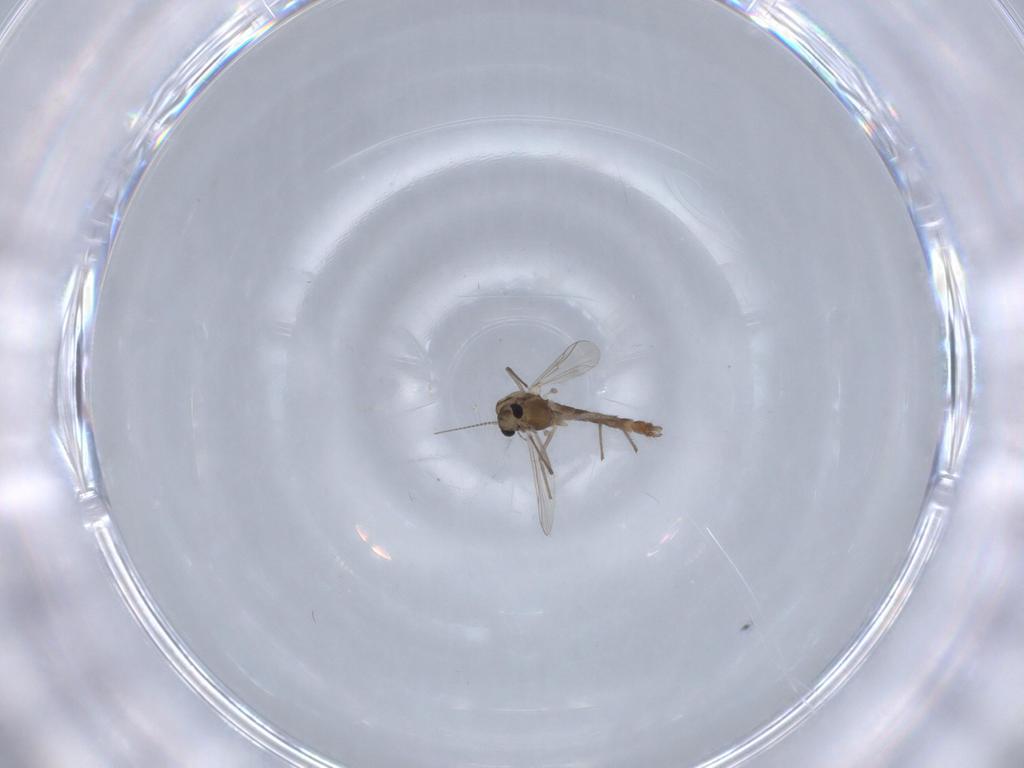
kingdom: Animalia
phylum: Arthropoda
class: Insecta
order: Diptera
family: Chironomidae
